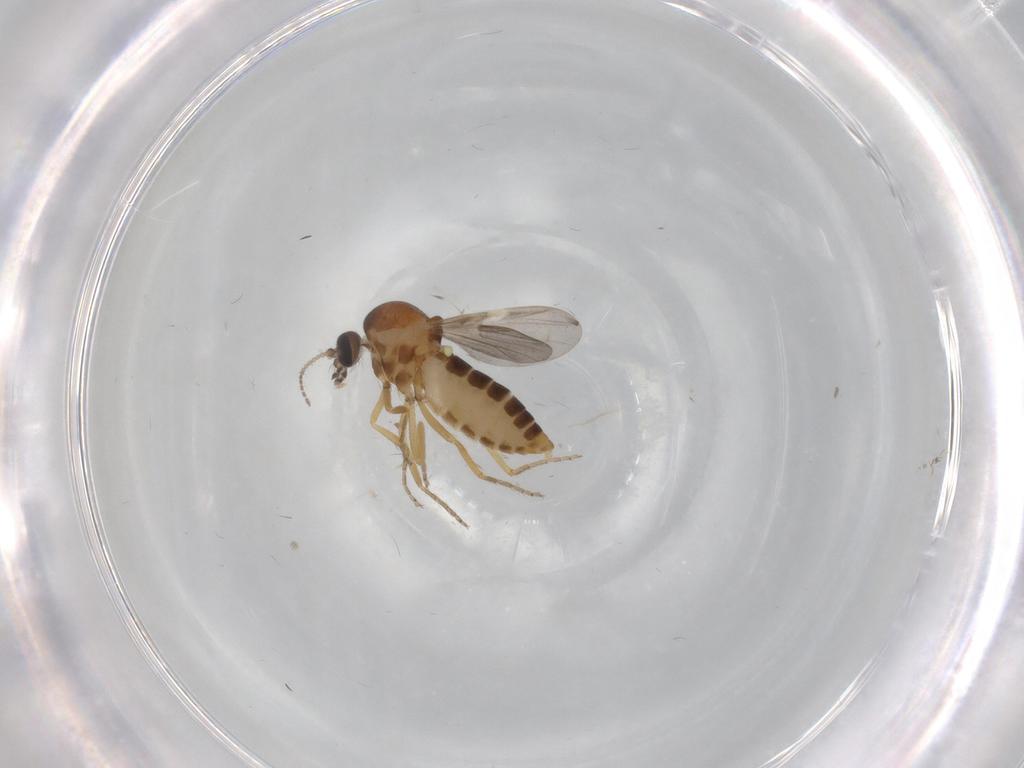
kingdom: Animalia
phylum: Arthropoda
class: Insecta
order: Diptera
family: Ceratopogonidae
